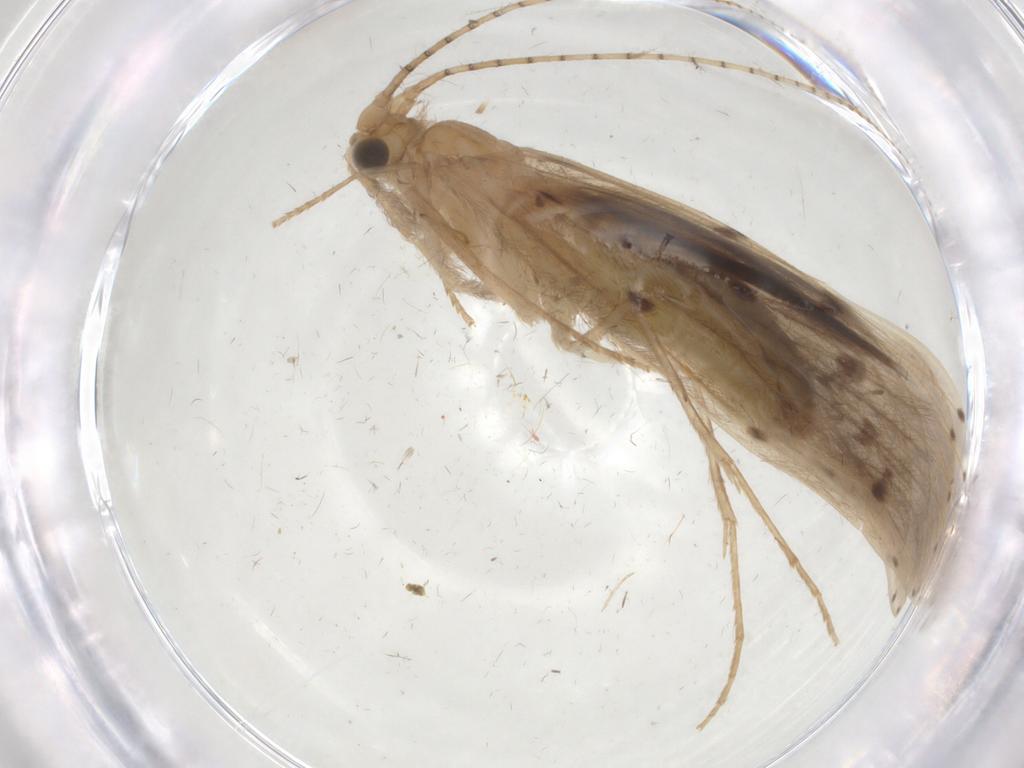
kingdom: Animalia
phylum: Arthropoda
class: Insecta
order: Trichoptera
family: Leptoceridae
